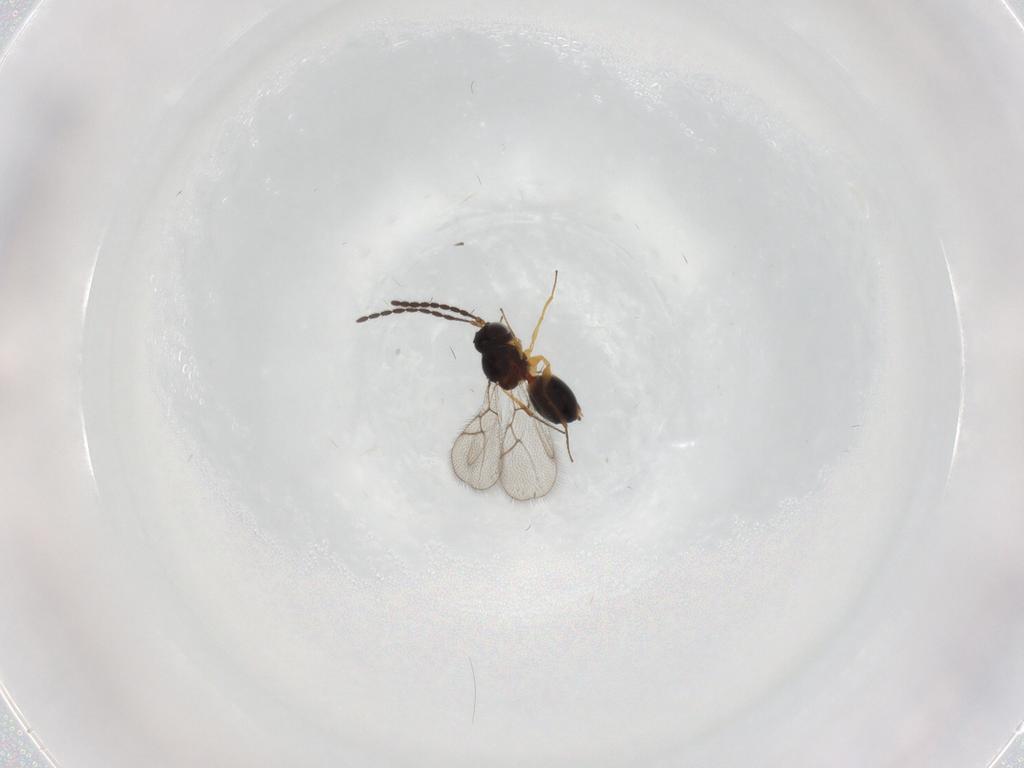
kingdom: Animalia
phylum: Arthropoda
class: Insecta
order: Hymenoptera
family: Figitidae
